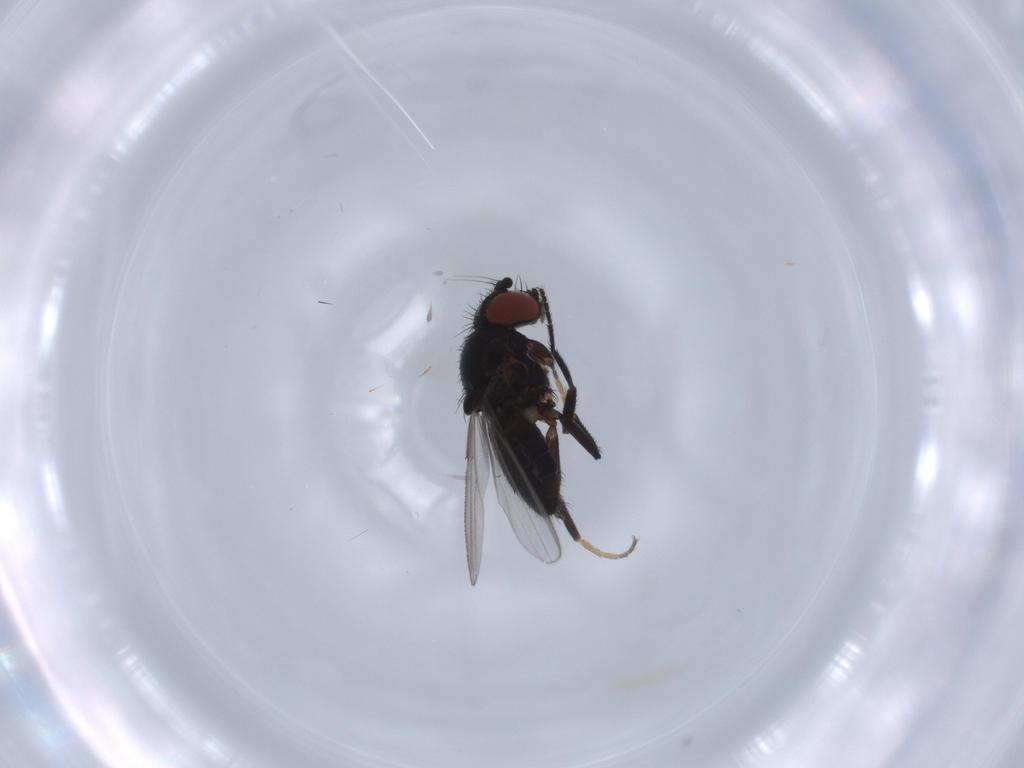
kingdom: Animalia
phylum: Arthropoda
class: Insecta
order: Diptera
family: Milichiidae
